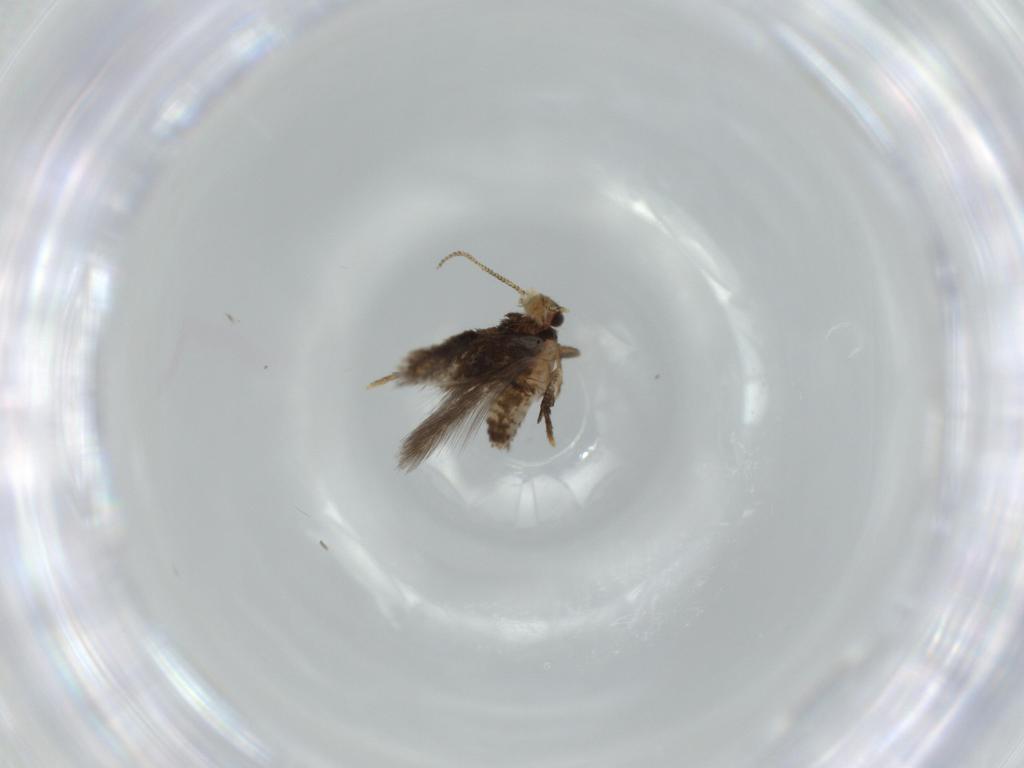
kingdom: Animalia
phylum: Arthropoda
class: Insecta
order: Lepidoptera
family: Nepticulidae
